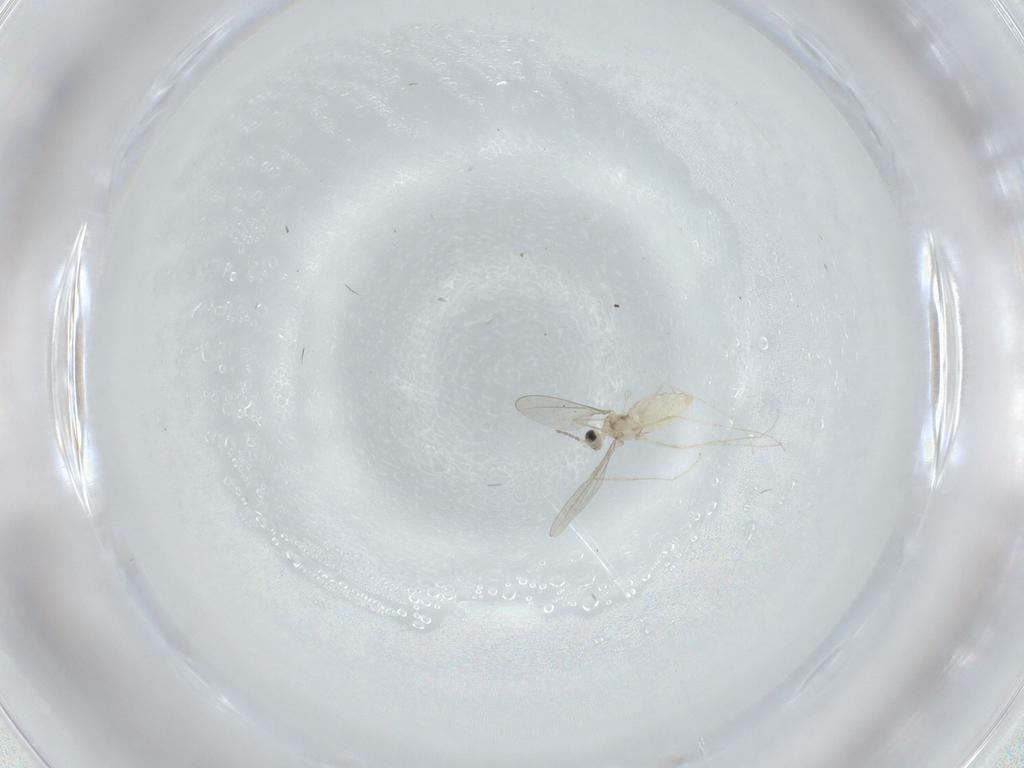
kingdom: Animalia
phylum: Arthropoda
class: Insecta
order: Diptera
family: Cecidomyiidae
